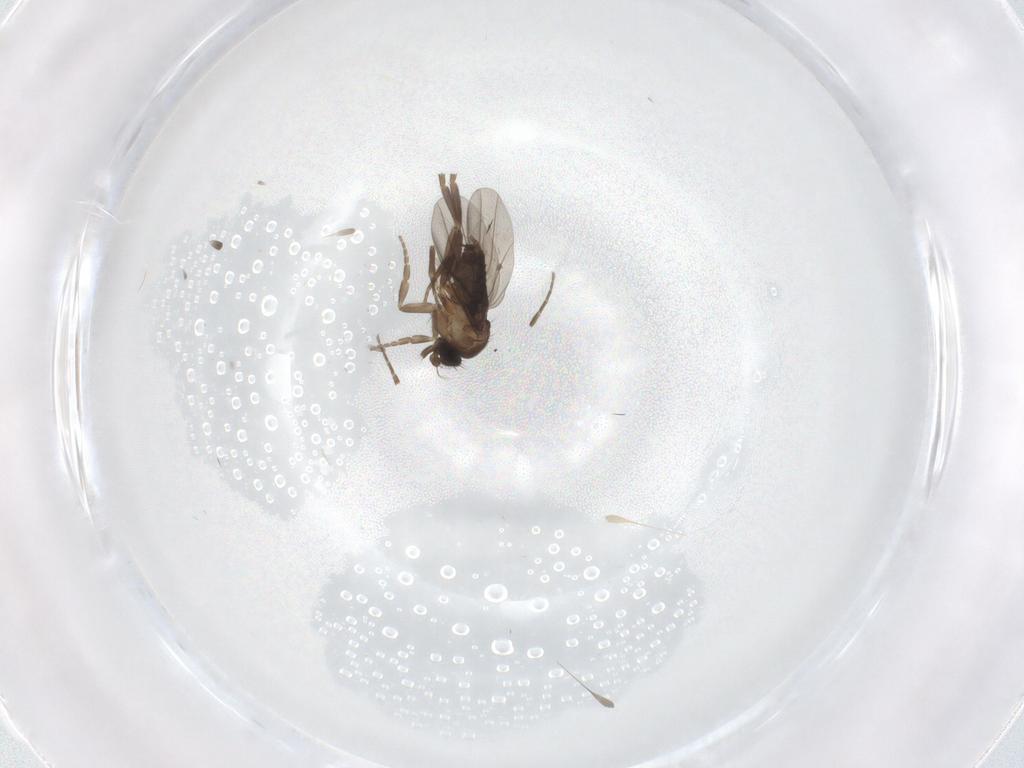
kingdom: Animalia
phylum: Arthropoda
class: Insecta
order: Diptera
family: Phoridae
